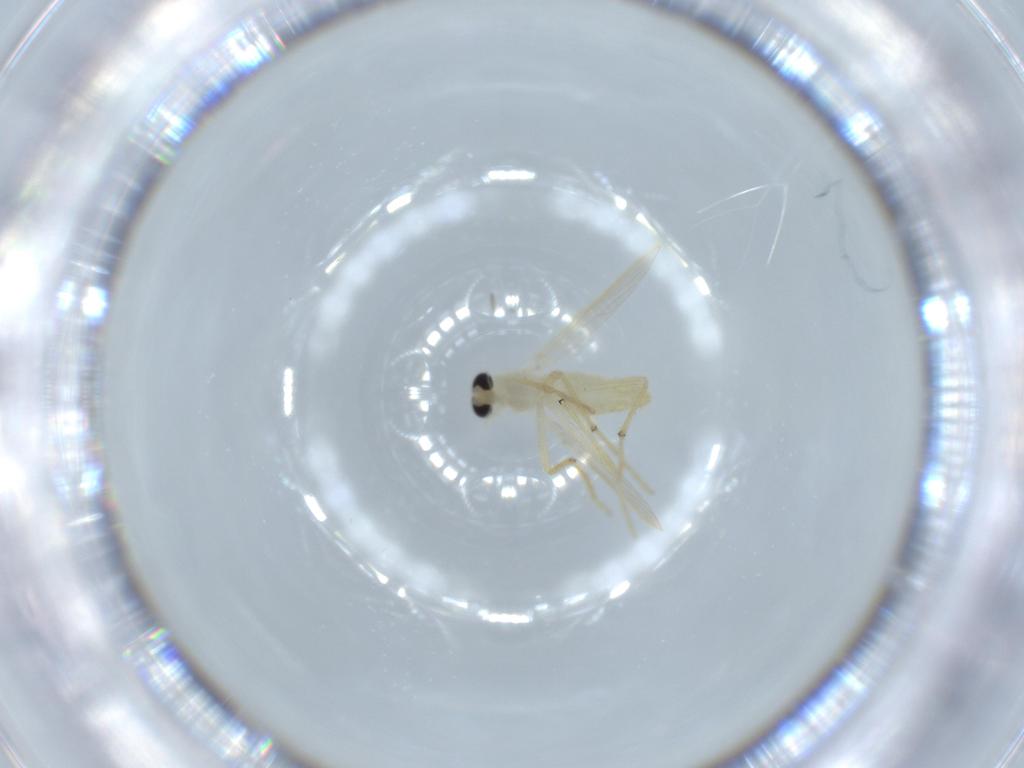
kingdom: Animalia
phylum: Arthropoda
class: Insecta
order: Diptera
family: Chironomidae
